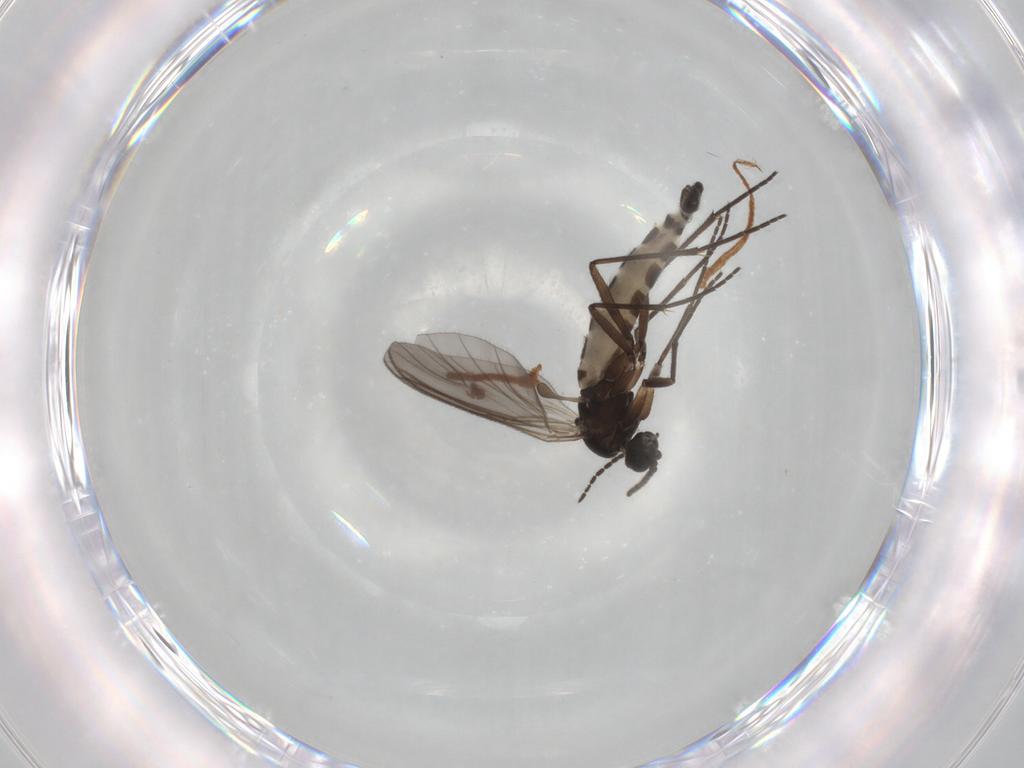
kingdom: Animalia
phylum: Arthropoda
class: Insecta
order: Diptera
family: Sciaridae
